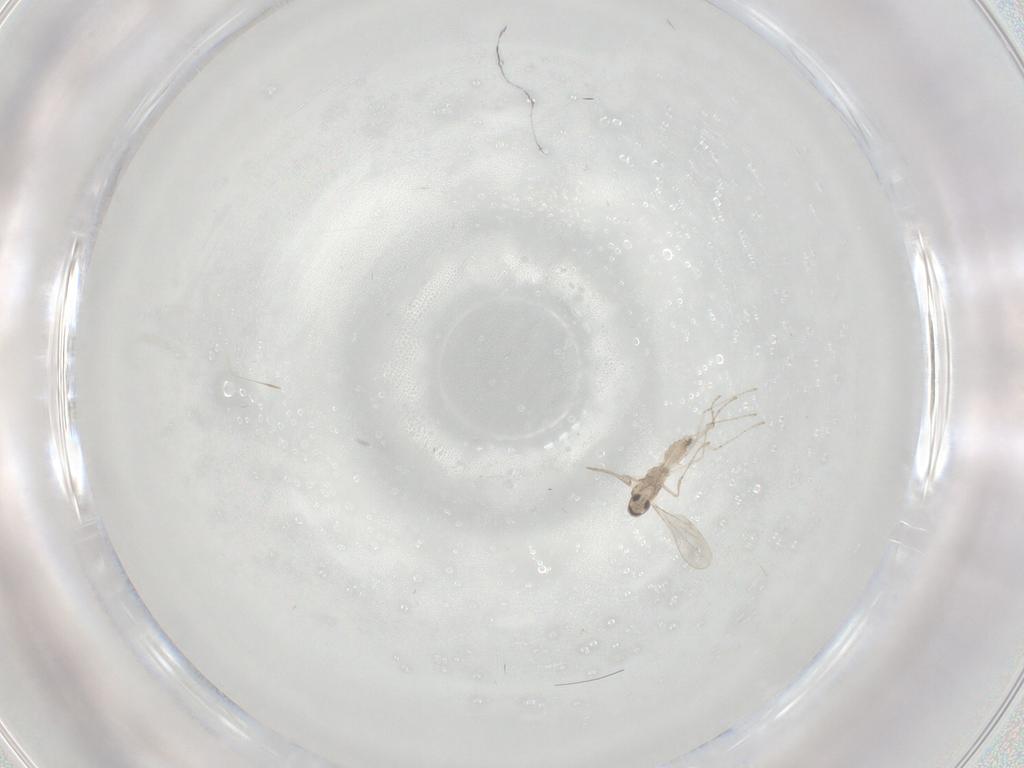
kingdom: Animalia
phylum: Arthropoda
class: Insecta
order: Diptera
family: Cecidomyiidae
